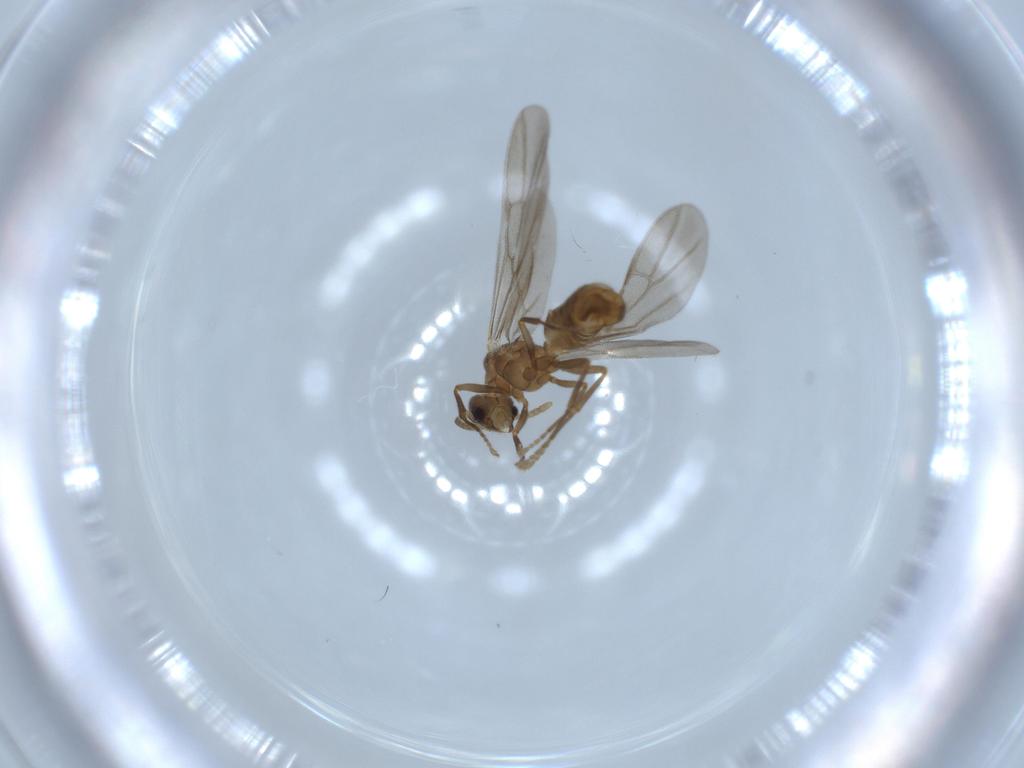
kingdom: Animalia
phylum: Arthropoda
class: Insecta
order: Hymenoptera
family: Formicidae
